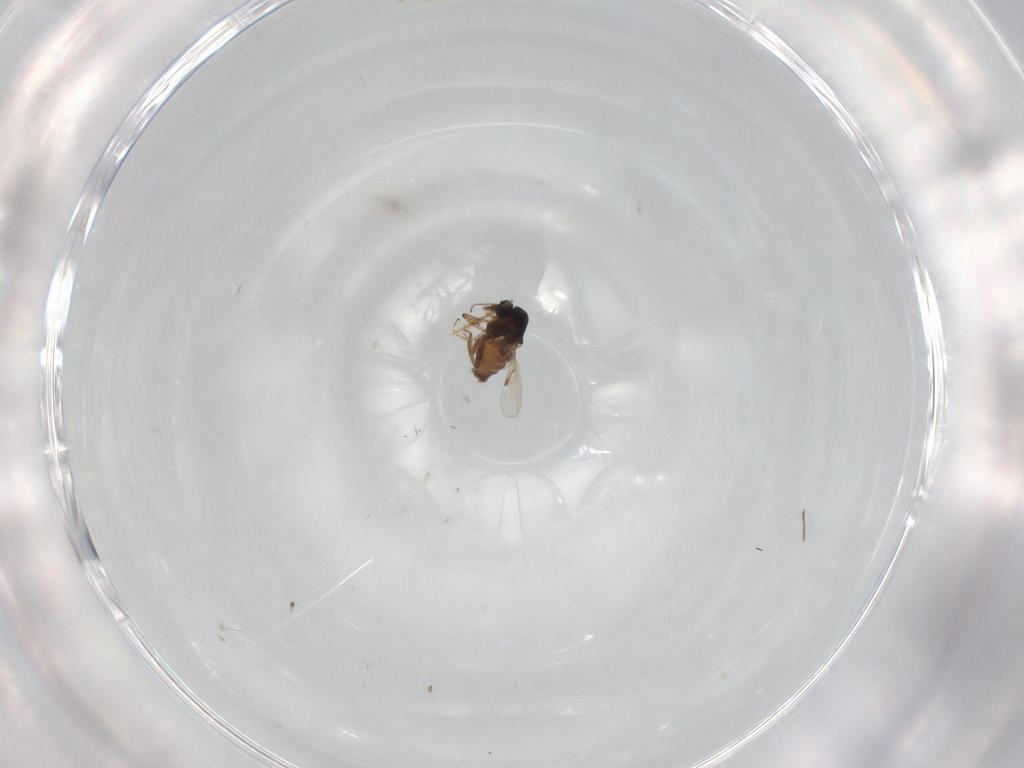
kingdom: Animalia
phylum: Arthropoda
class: Insecta
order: Diptera
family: Ceratopogonidae
